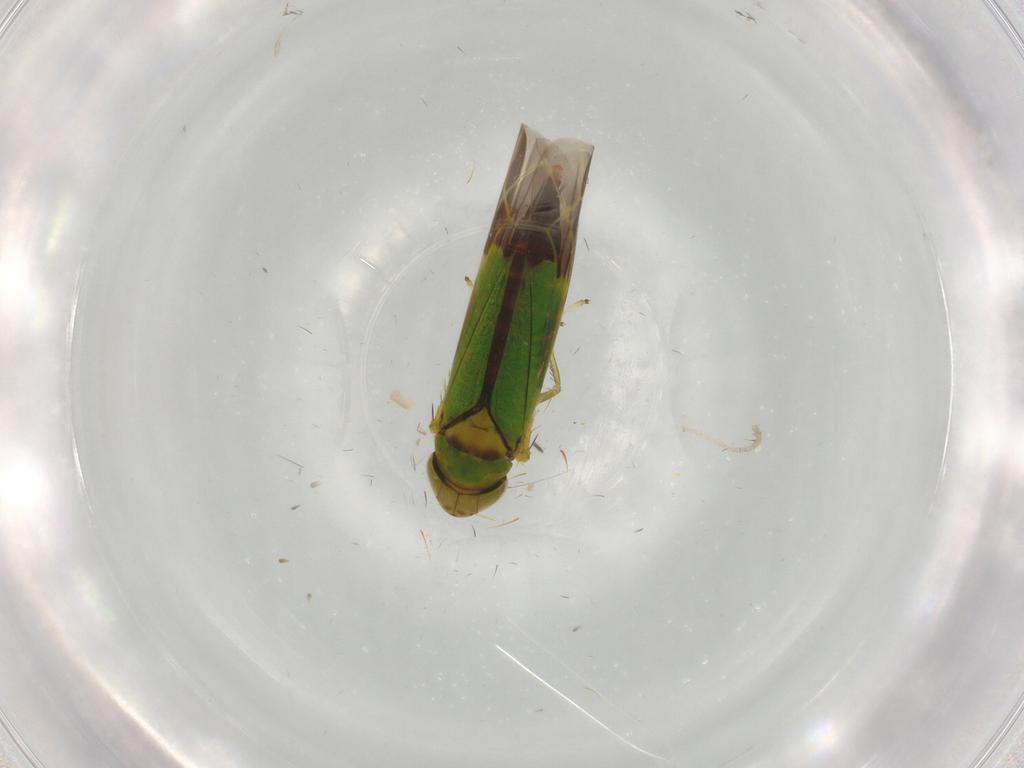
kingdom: Animalia
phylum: Arthropoda
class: Insecta
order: Hemiptera
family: Cicadellidae
